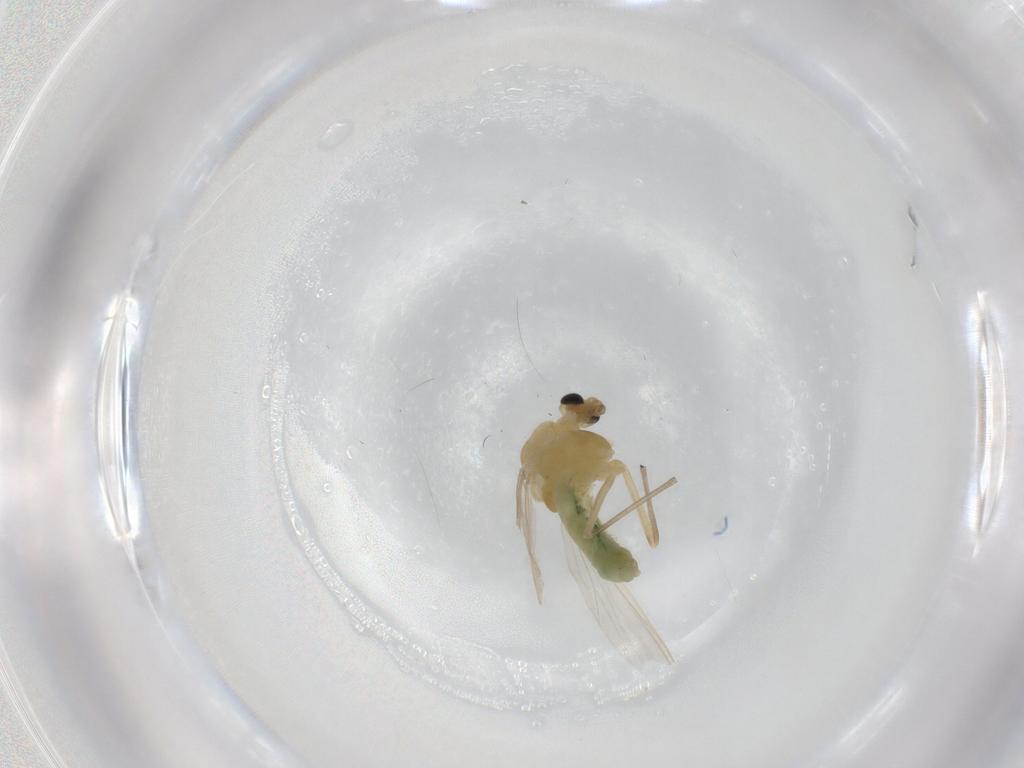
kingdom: Animalia
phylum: Arthropoda
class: Insecta
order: Diptera
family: Chironomidae
